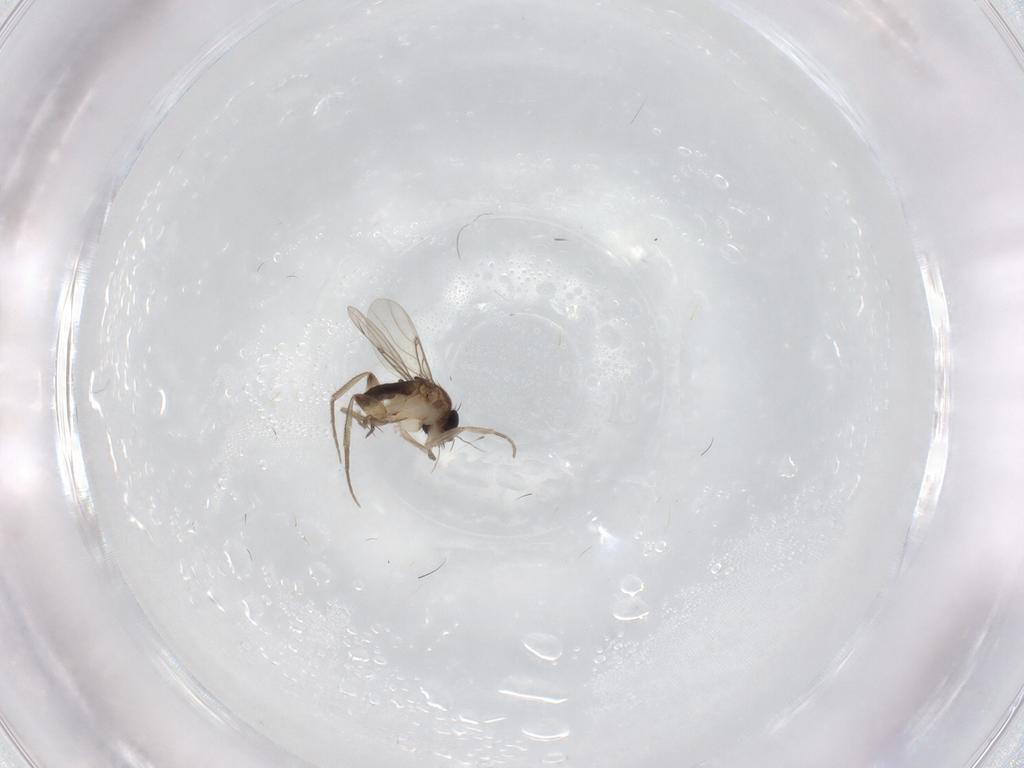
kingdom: Animalia
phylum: Arthropoda
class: Insecta
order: Diptera
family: Phoridae
